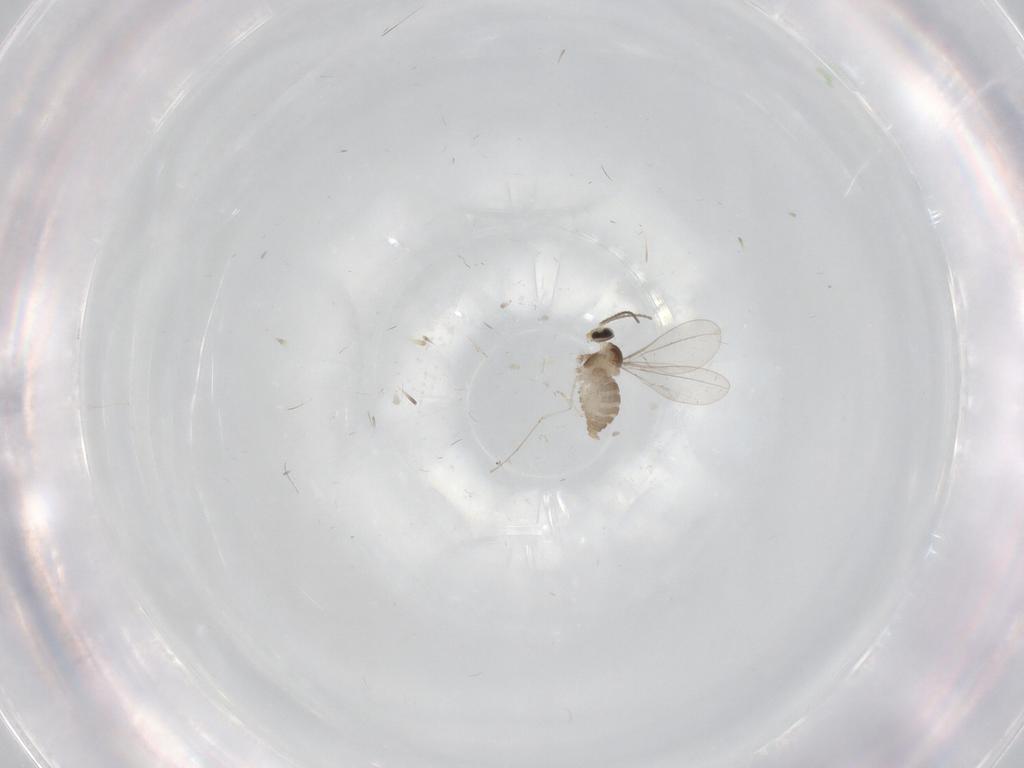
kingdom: Animalia
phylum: Arthropoda
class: Insecta
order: Diptera
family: Cecidomyiidae
